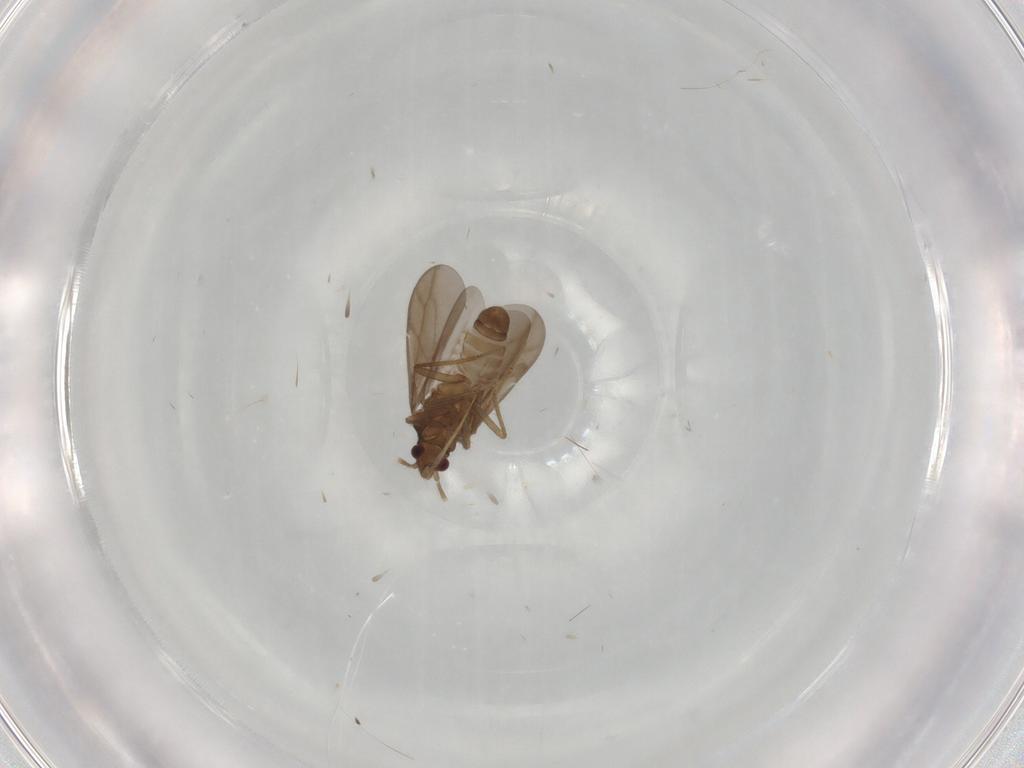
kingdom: Animalia
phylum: Arthropoda
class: Insecta
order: Hemiptera
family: Ceratocombidae
